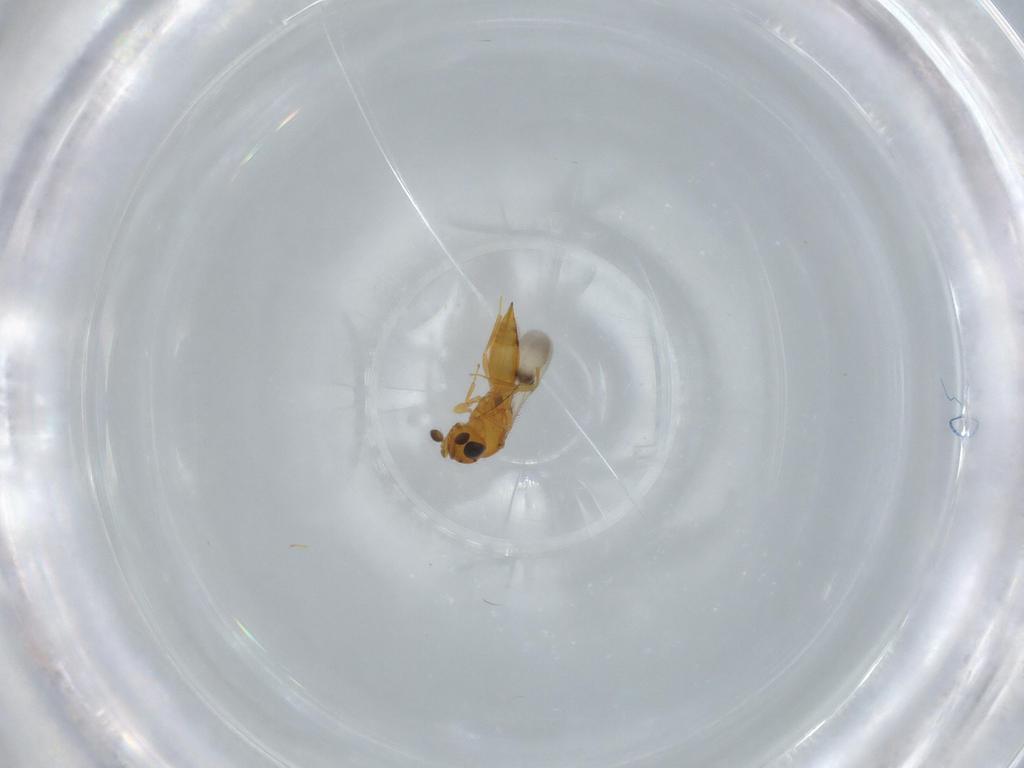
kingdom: Animalia
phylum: Arthropoda
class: Insecta
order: Hymenoptera
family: Scelionidae
